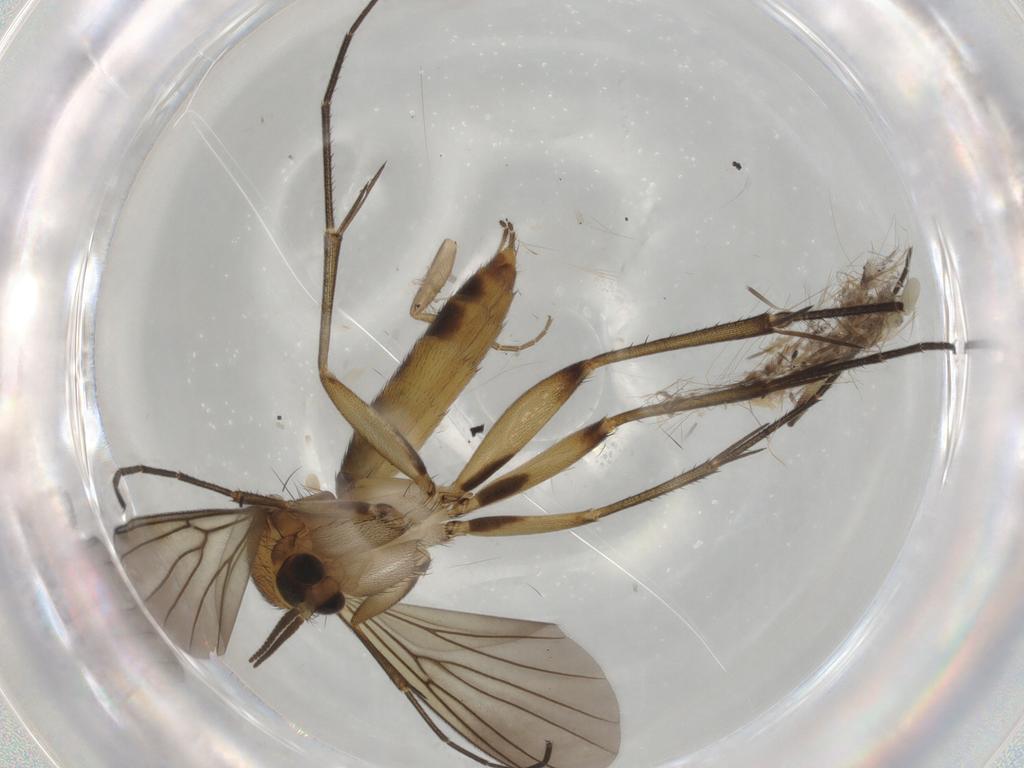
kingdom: Animalia
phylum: Arthropoda
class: Insecta
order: Diptera
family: Mycetophilidae
